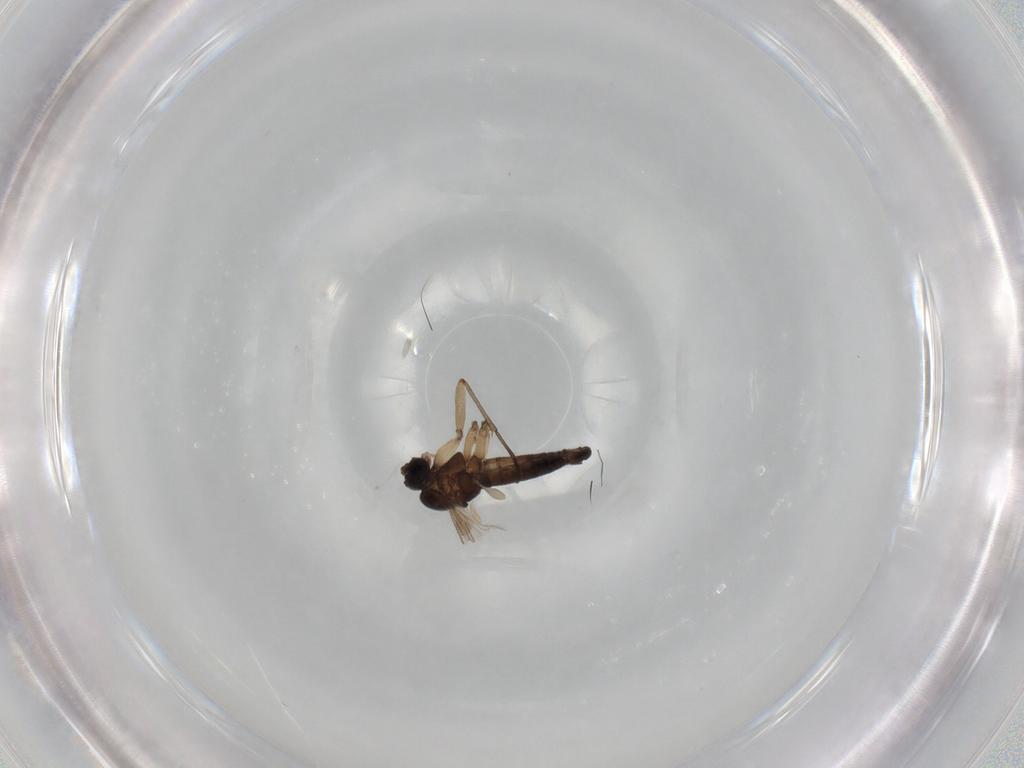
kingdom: Animalia
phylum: Arthropoda
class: Insecta
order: Diptera
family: Sciaridae
